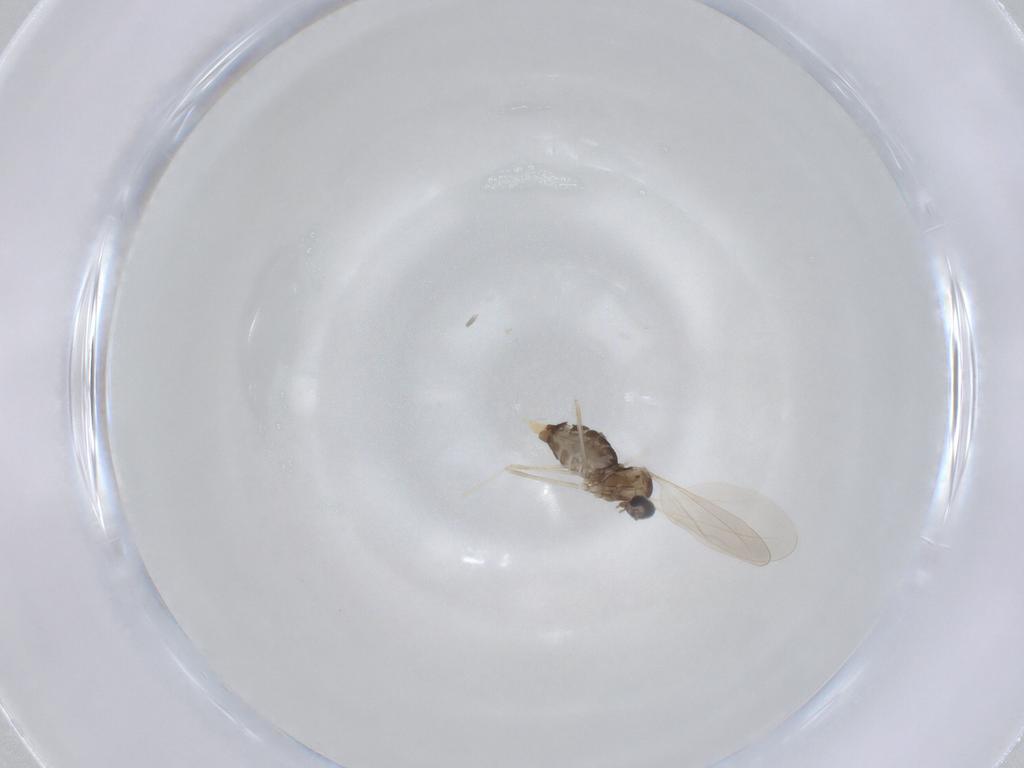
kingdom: Animalia
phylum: Arthropoda
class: Insecta
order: Diptera
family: Cecidomyiidae
